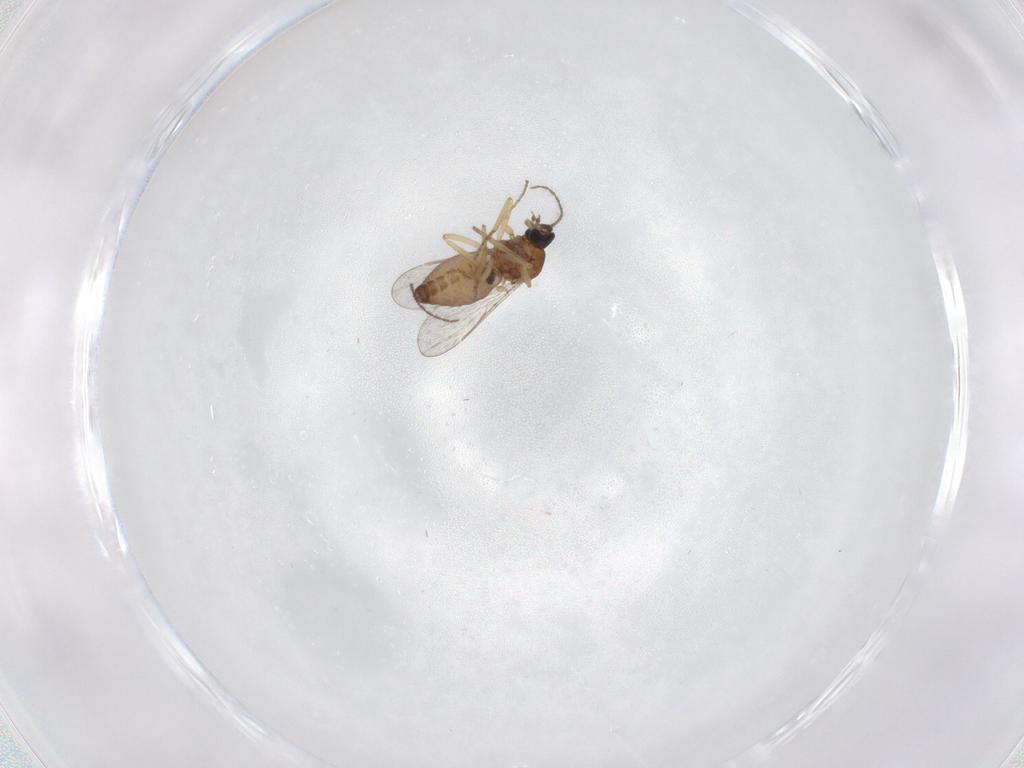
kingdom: Animalia
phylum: Arthropoda
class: Insecta
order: Diptera
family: Ceratopogonidae
